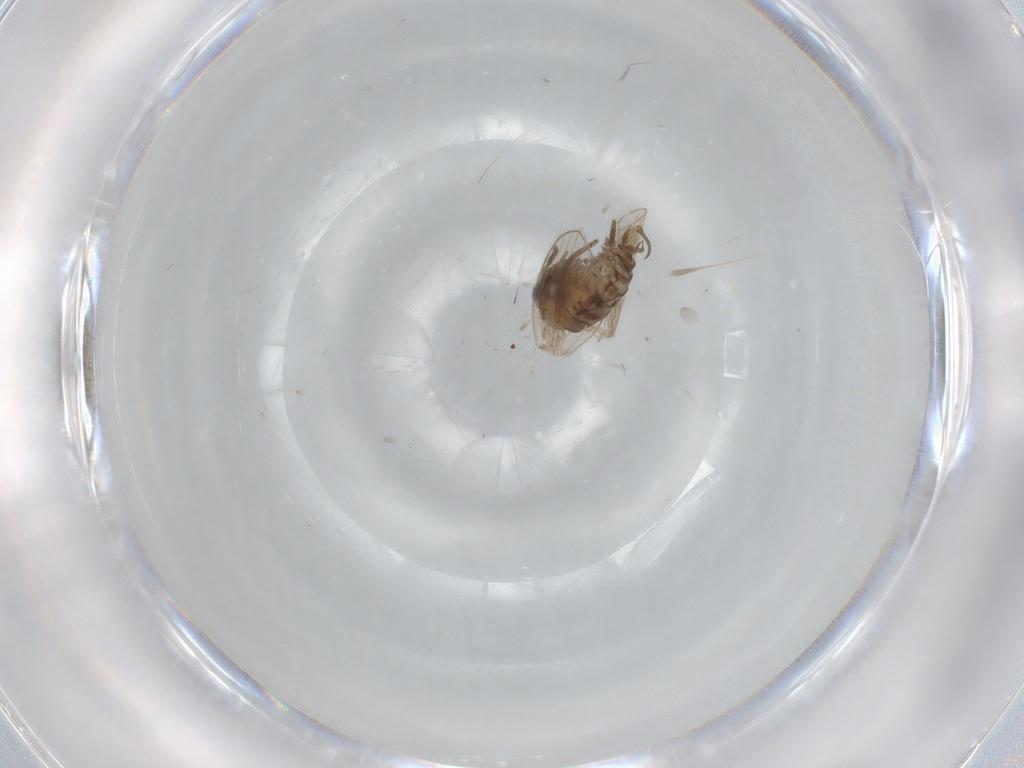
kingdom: Animalia
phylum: Arthropoda
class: Insecta
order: Diptera
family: Psychodidae
